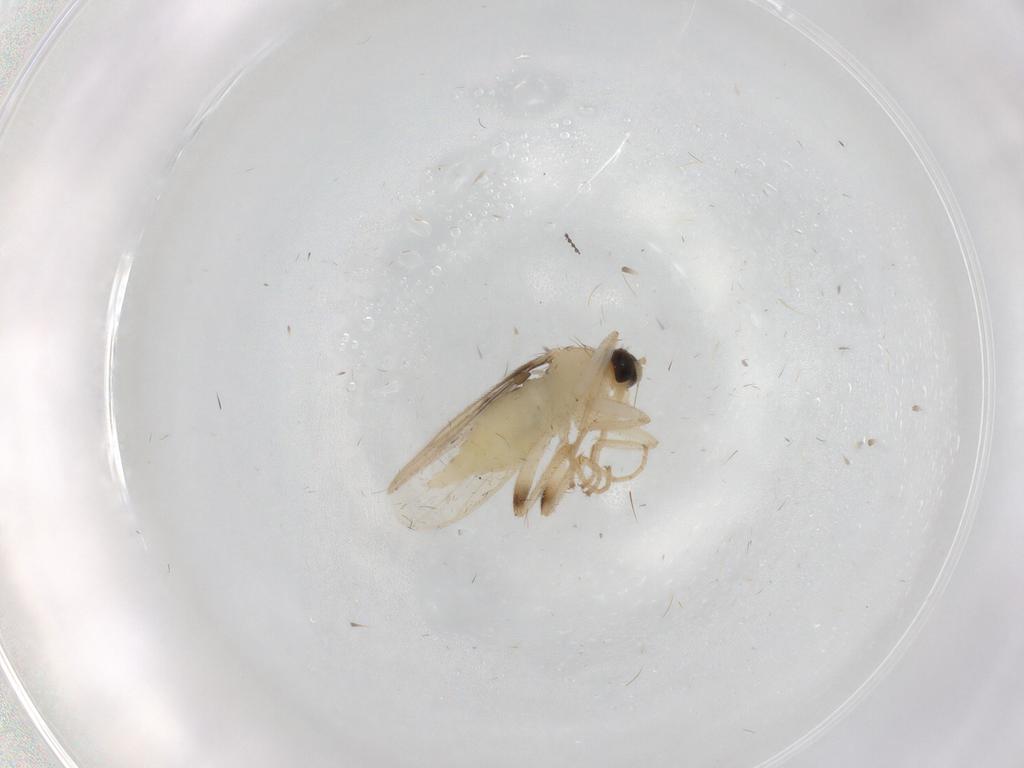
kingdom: Animalia
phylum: Arthropoda
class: Insecta
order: Diptera
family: Hybotidae
